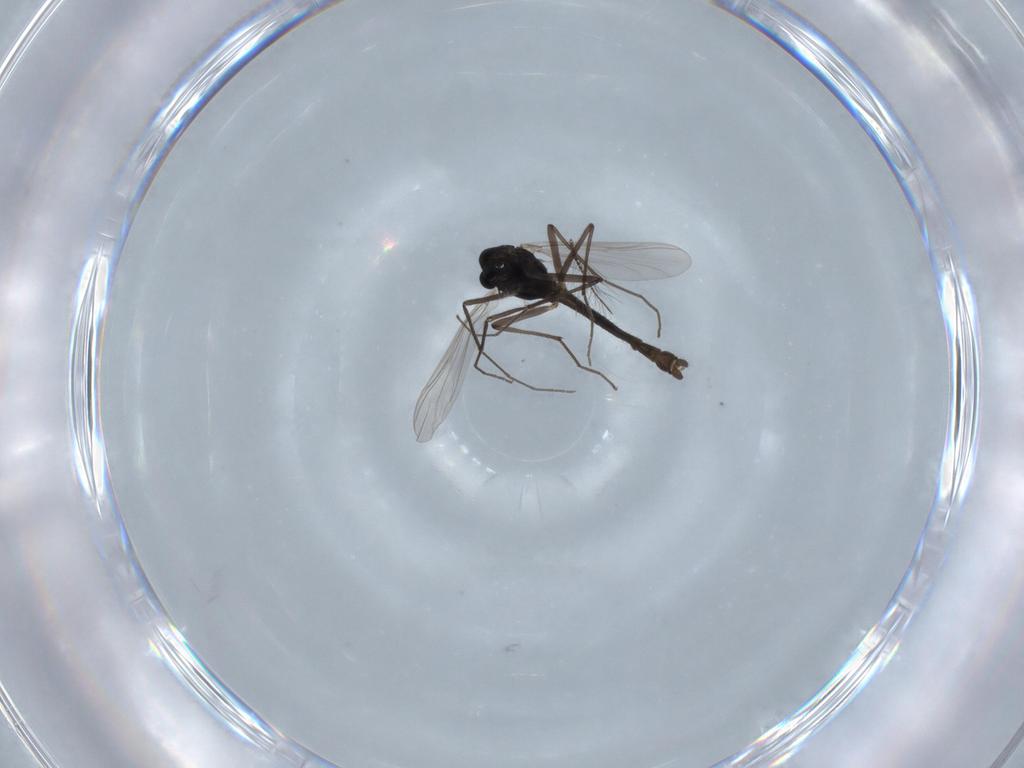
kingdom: Animalia
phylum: Arthropoda
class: Insecta
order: Diptera
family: Chironomidae
